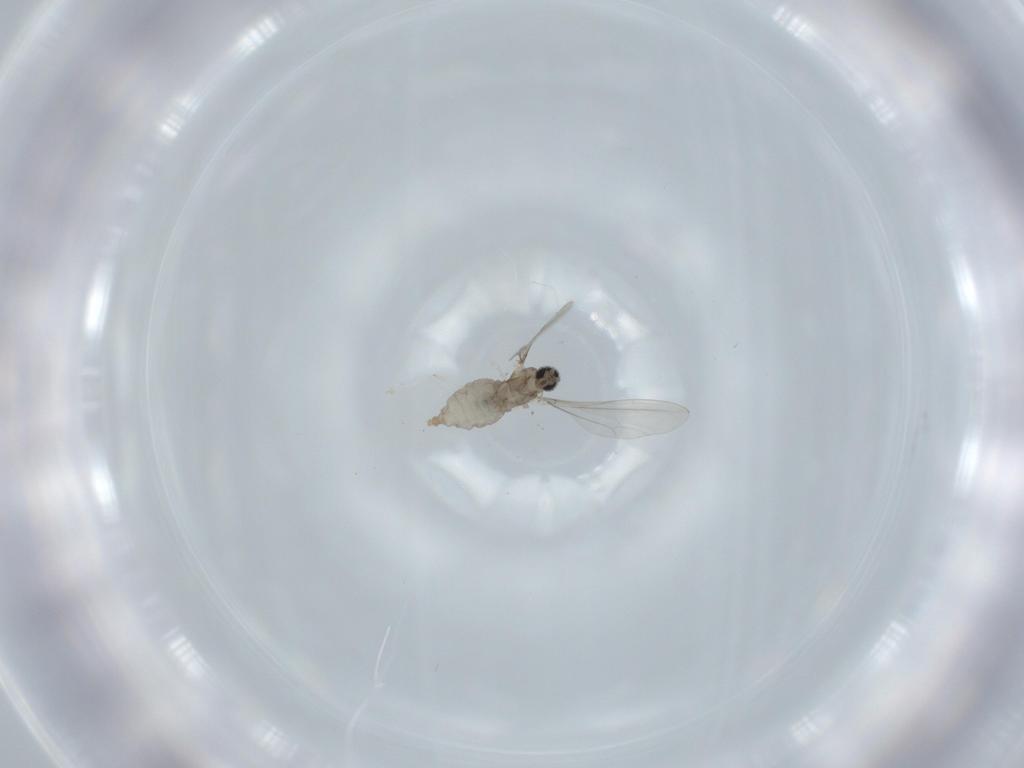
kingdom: Animalia
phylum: Arthropoda
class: Insecta
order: Diptera
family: Cecidomyiidae
